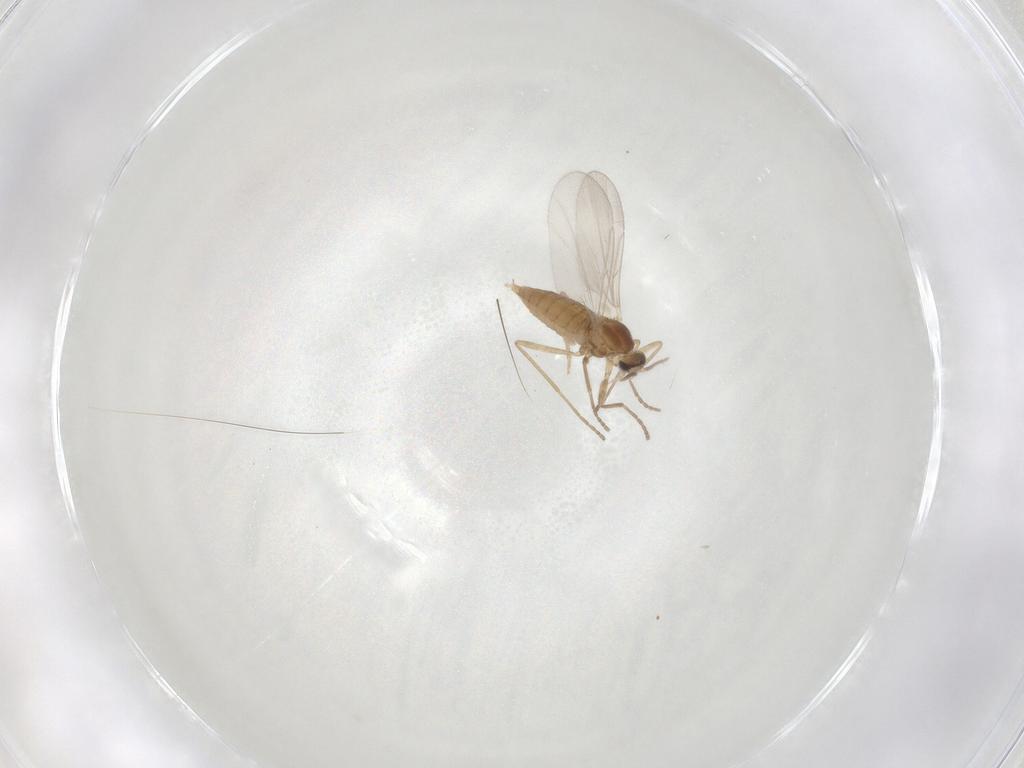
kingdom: Animalia
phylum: Arthropoda
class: Insecta
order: Diptera
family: Cecidomyiidae
